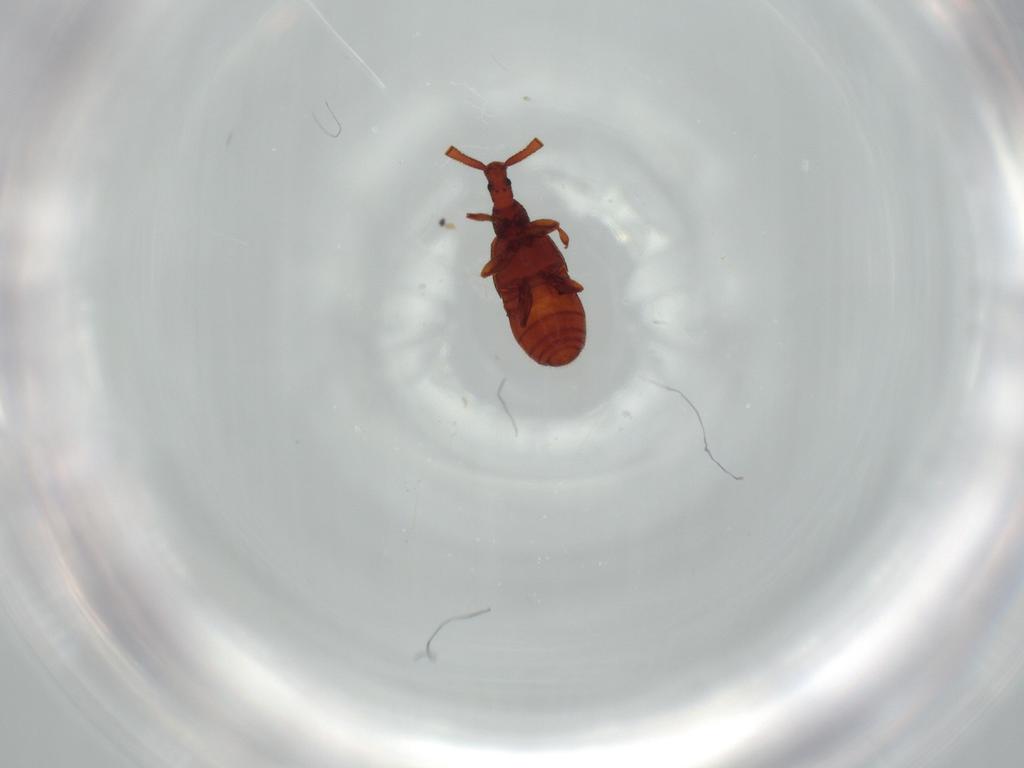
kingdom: Animalia
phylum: Arthropoda
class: Insecta
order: Coleoptera
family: Staphylinidae
